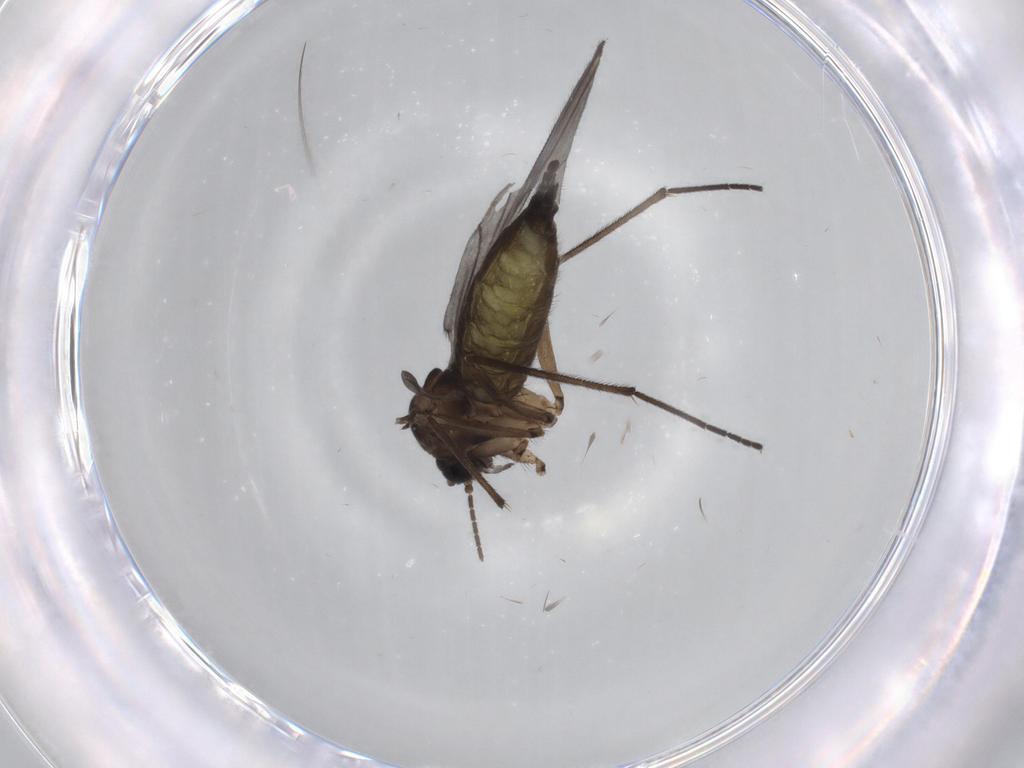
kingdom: Animalia
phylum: Arthropoda
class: Insecta
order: Diptera
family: Sciaridae
